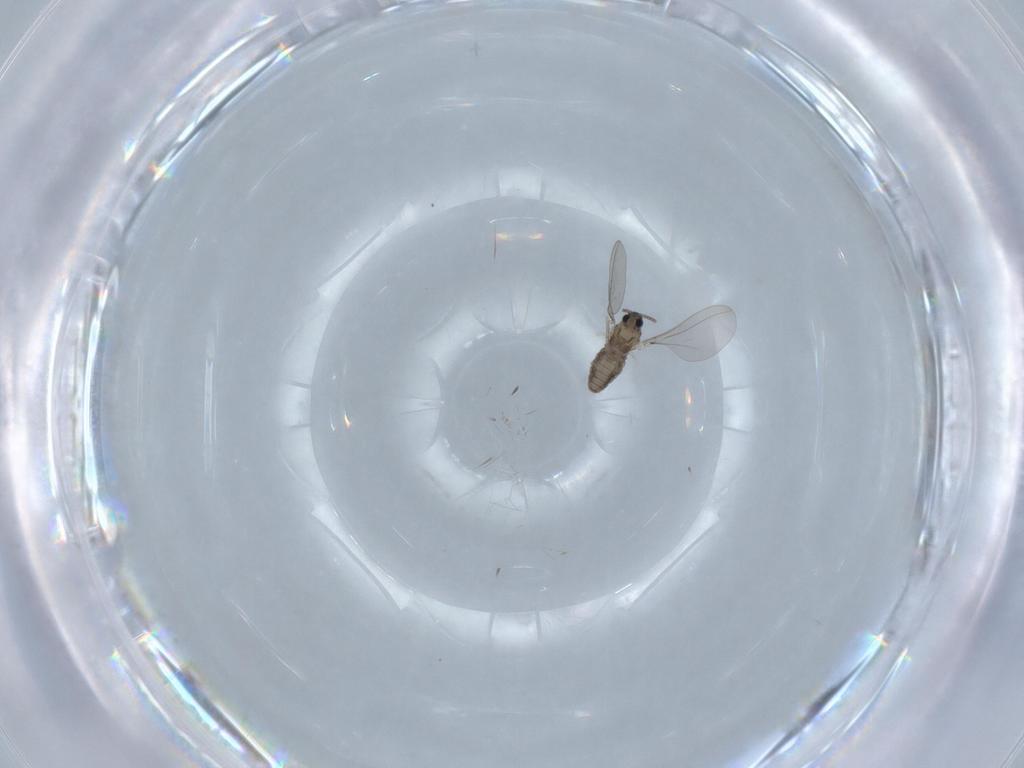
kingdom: Animalia
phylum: Arthropoda
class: Insecta
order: Diptera
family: Cecidomyiidae
